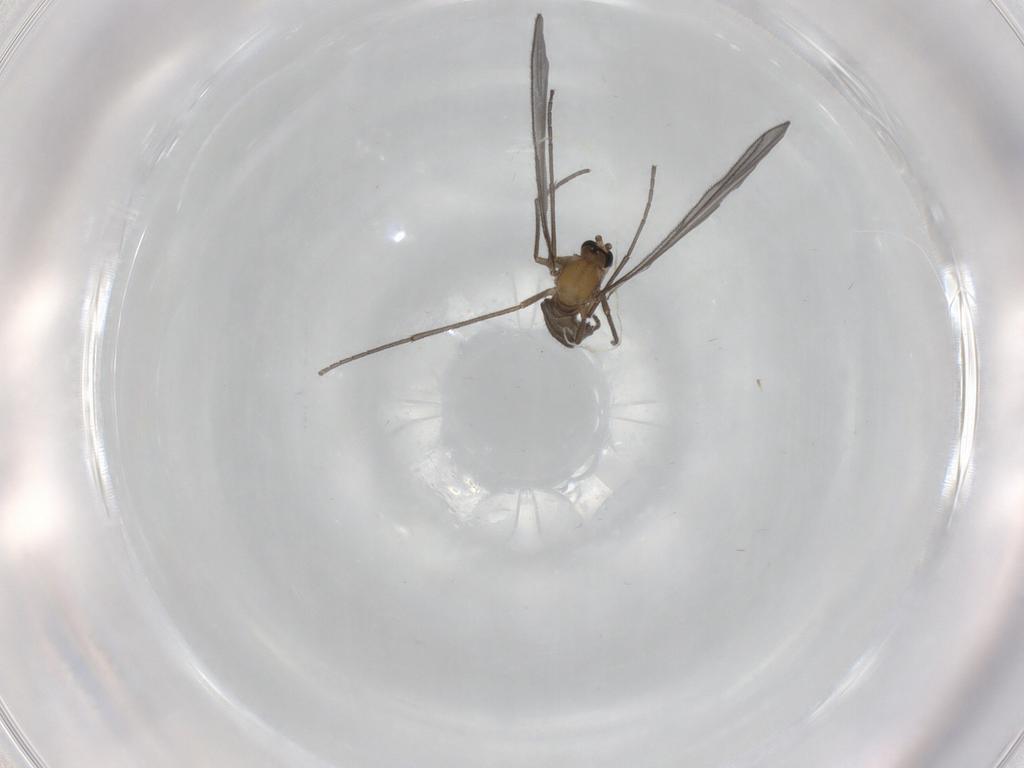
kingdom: Animalia
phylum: Arthropoda
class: Insecta
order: Diptera
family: Sciaridae
